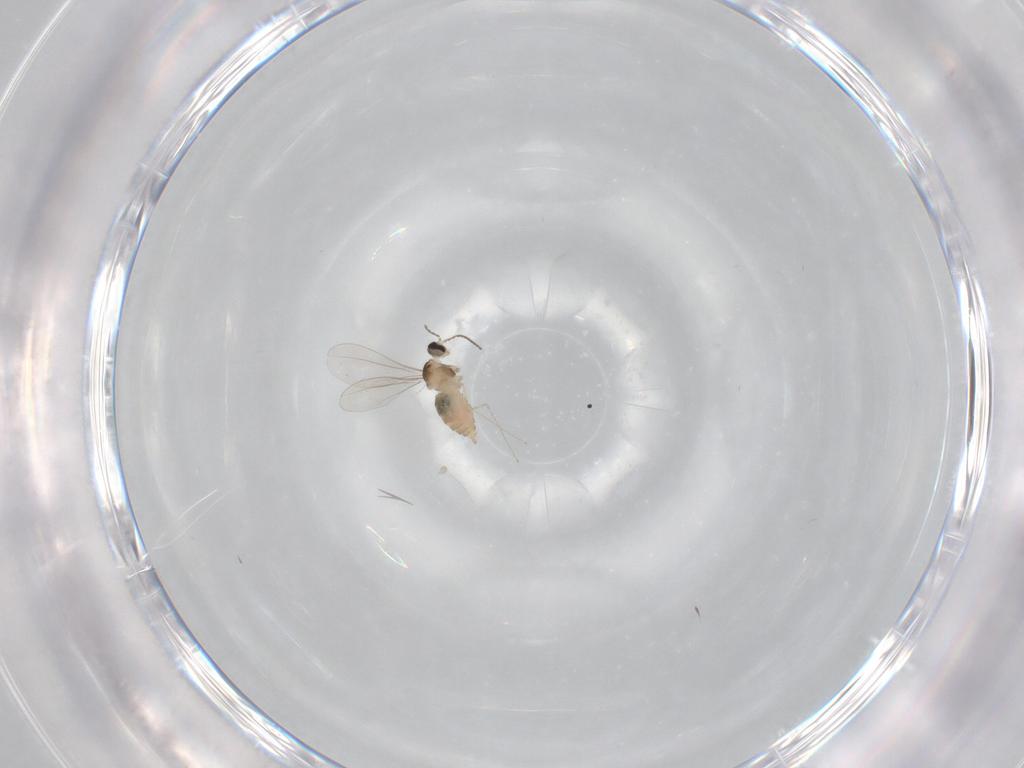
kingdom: Animalia
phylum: Arthropoda
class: Insecta
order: Diptera
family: Cecidomyiidae
